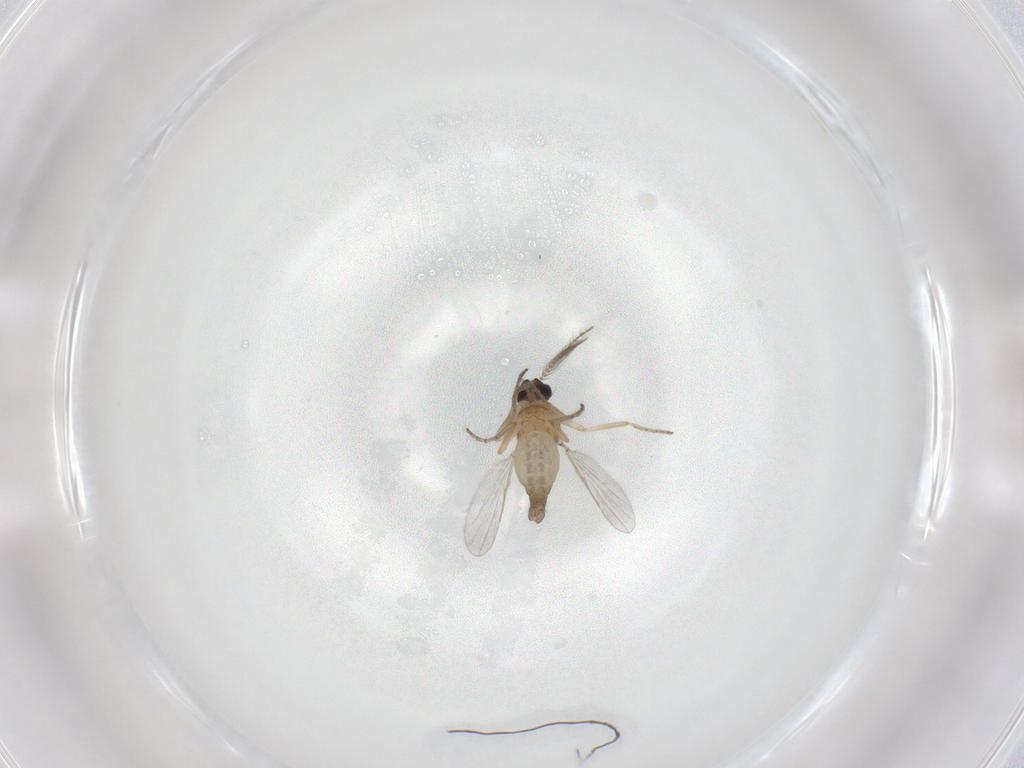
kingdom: Animalia
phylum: Arthropoda
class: Insecta
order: Diptera
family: Ceratopogonidae
